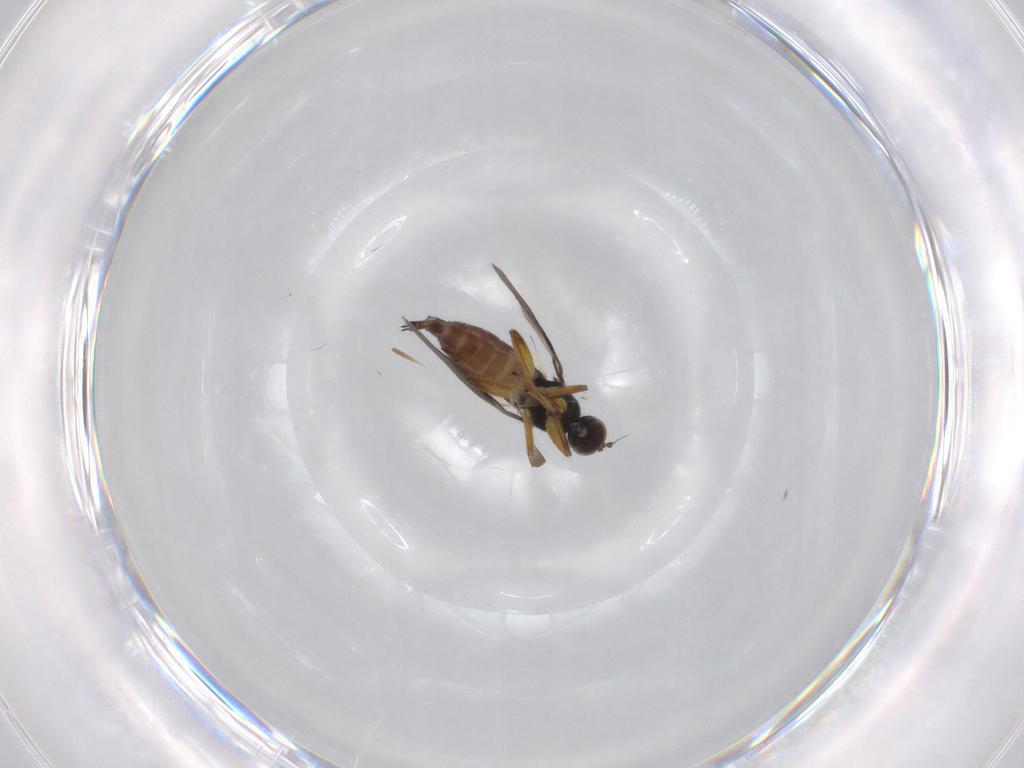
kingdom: Animalia
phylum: Arthropoda
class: Insecta
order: Diptera
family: Hybotidae
